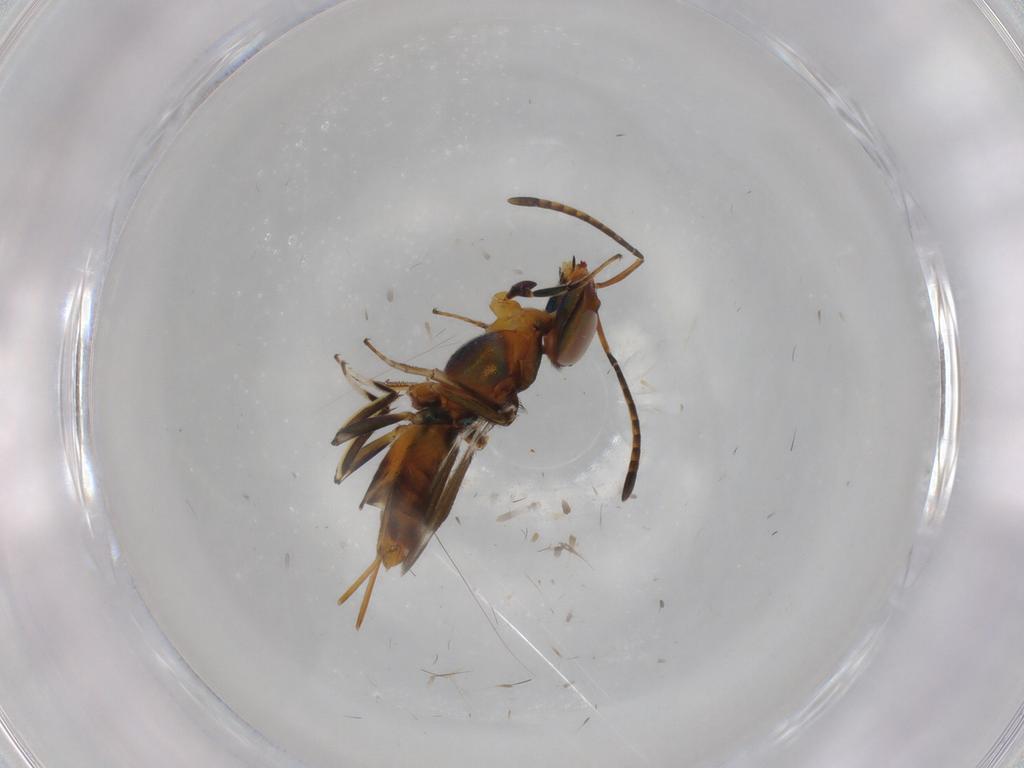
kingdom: Animalia
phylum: Arthropoda
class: Insecta
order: Hymenoptera
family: Eupelmidae
